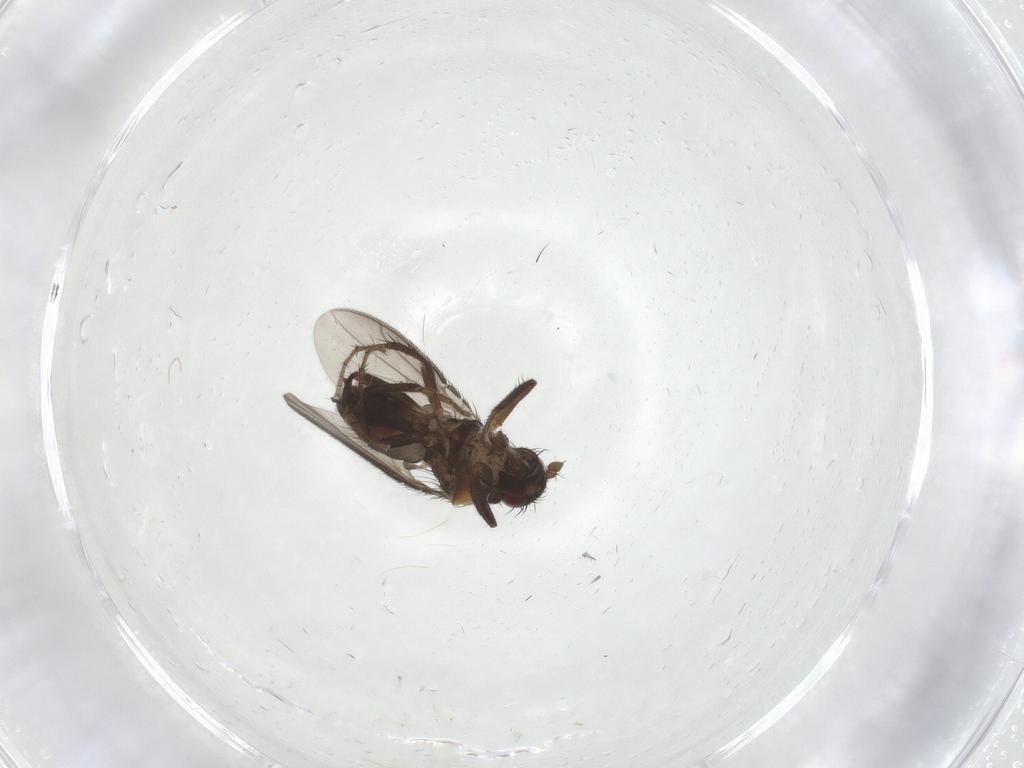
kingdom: Animalia
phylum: Arthropoda
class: Insecta
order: Diptera
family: Sphaeroceridae
